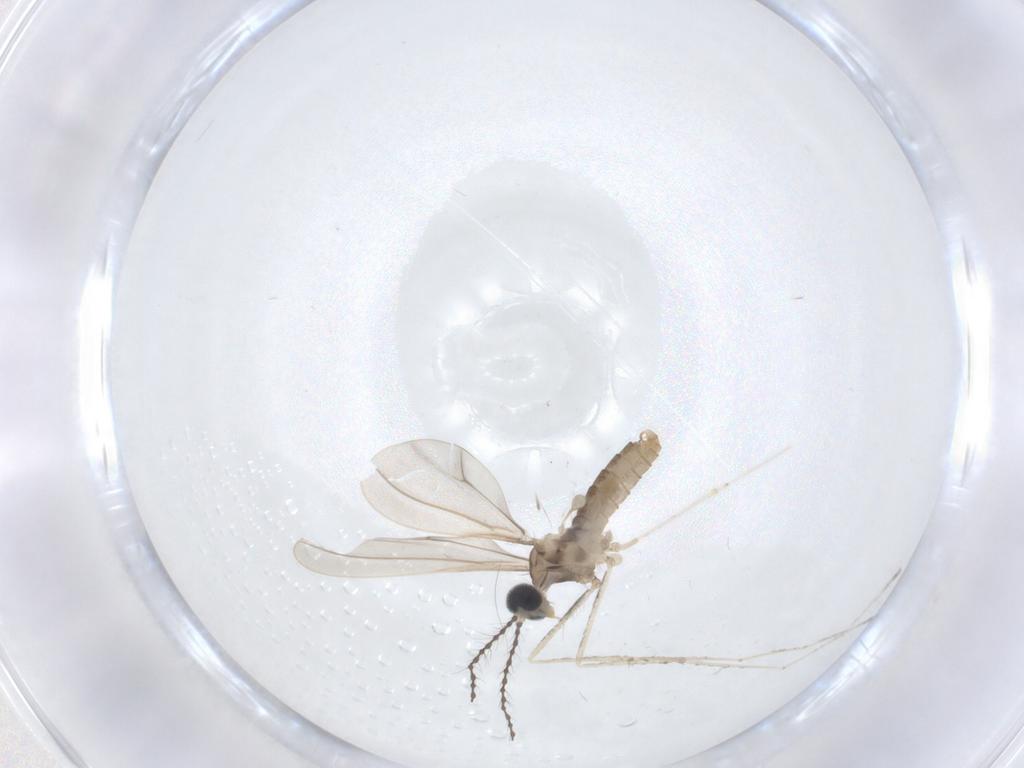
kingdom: Animalia
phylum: Arthropoda
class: Insecta
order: Diptera
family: Cecidomyiidae
